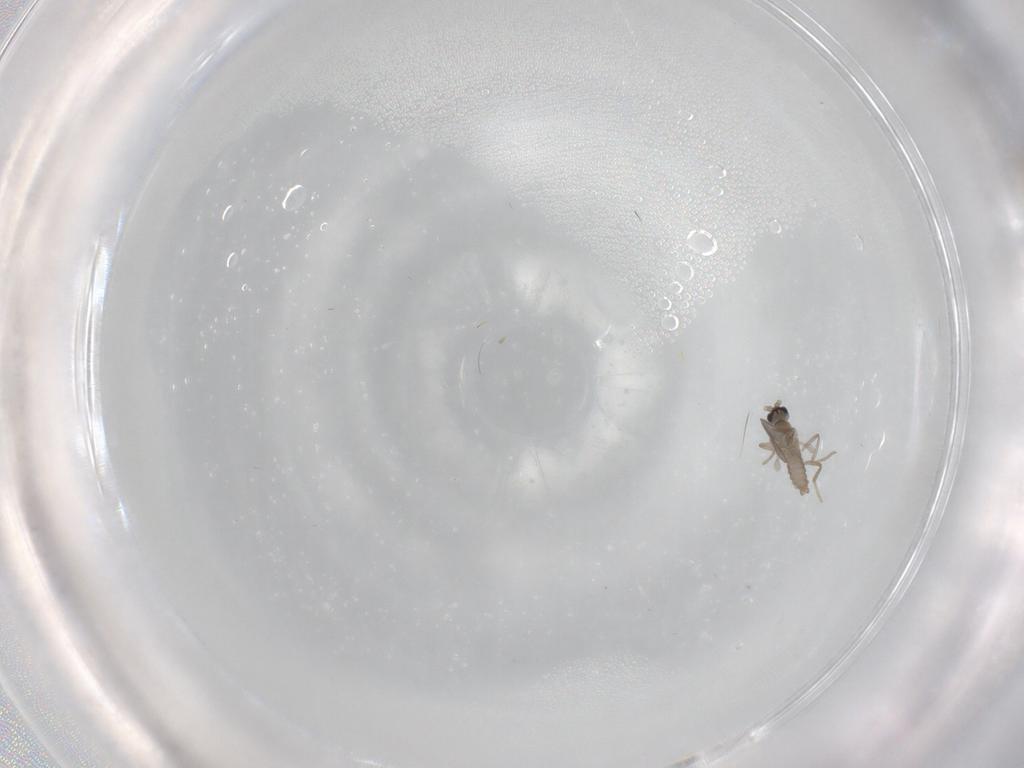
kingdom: Animalia
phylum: Arthropoda
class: Insecta
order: Diptera
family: Cecidomyiidae
